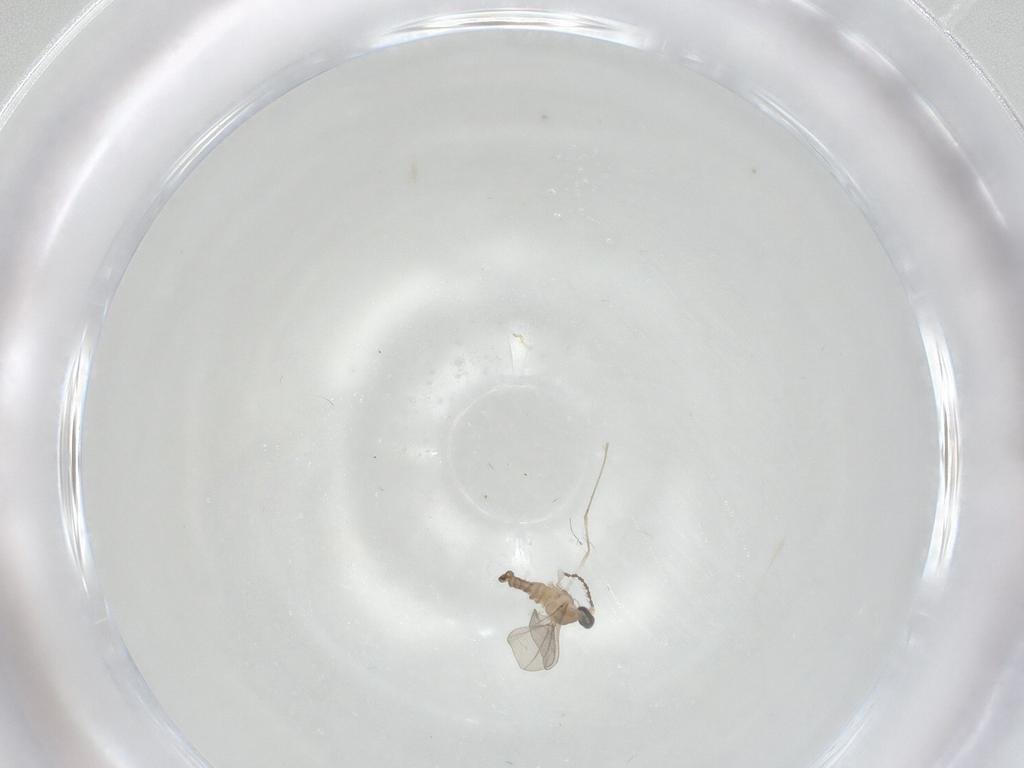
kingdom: Animalia
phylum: Arthropoda
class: Insecta
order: Diptera
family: Cecidomyiidae
